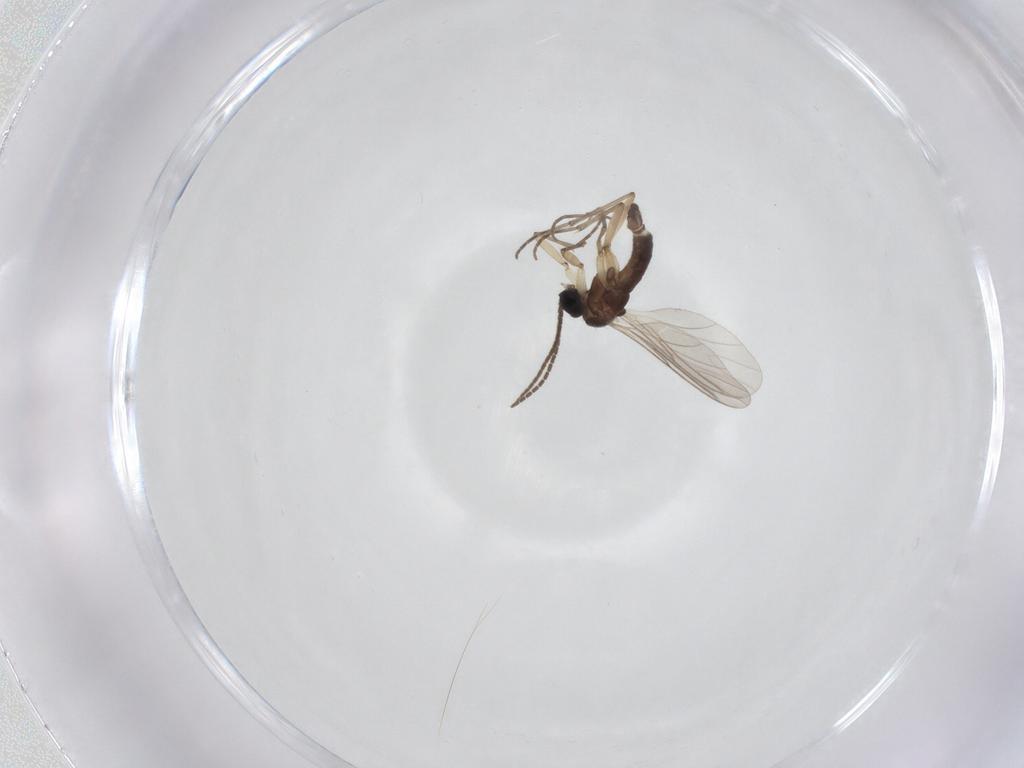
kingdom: Animalia
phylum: Arthropoda
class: Insecta
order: Diptera
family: Sciaridae
